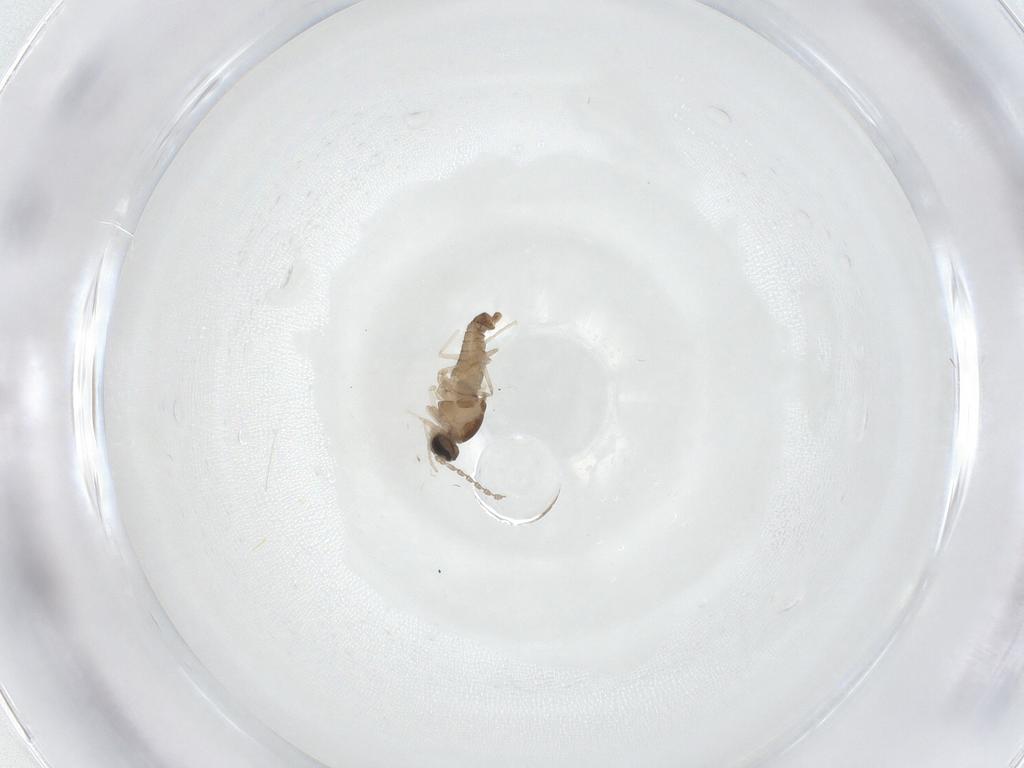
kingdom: Animalia
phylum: Arthropoda
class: Insecta
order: Diptera
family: Cecidomyiidae
